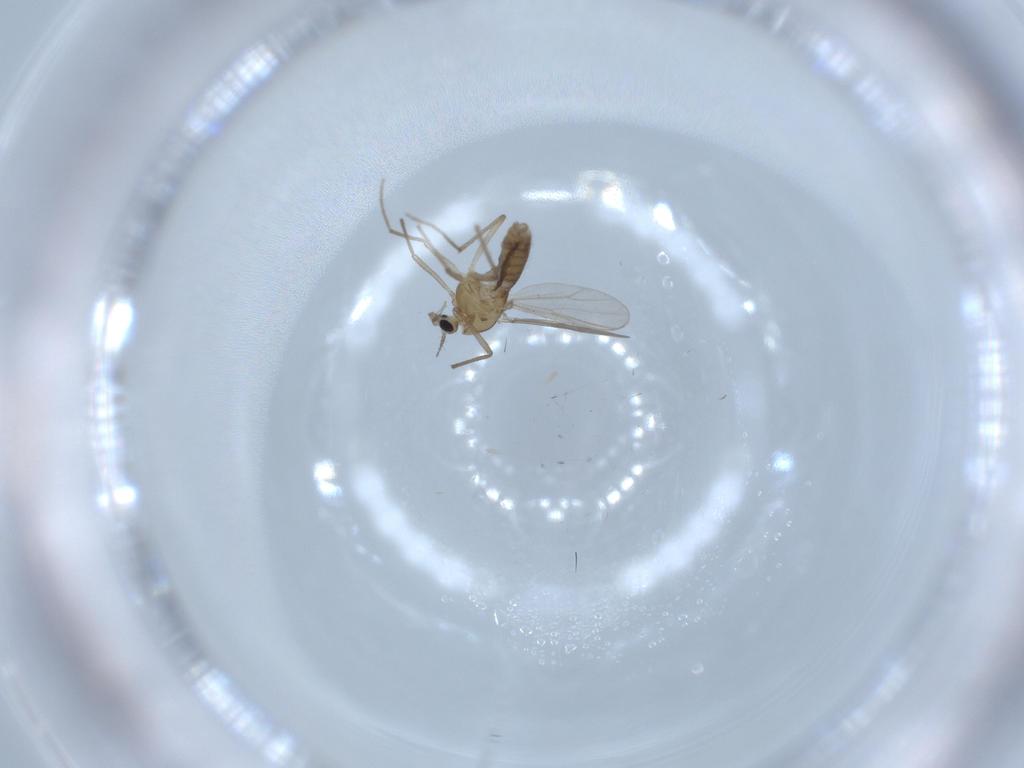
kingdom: Animalia
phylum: Arthropoda
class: Insecta
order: Diptera
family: Chironomidae
